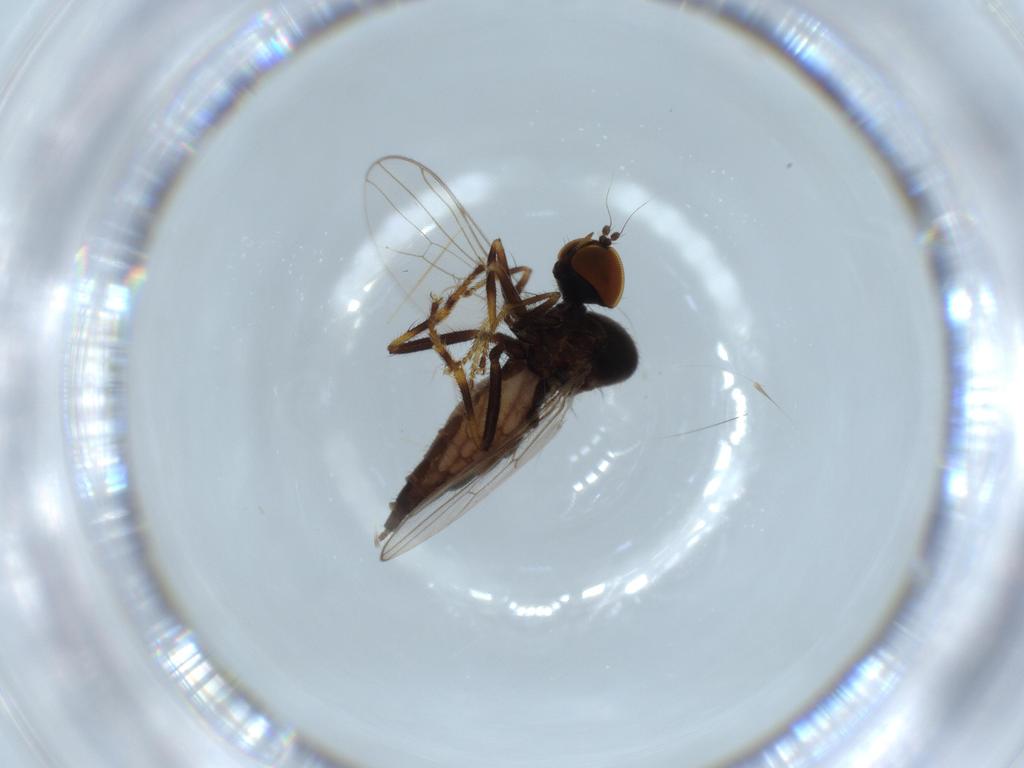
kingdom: Animalia
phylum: Arthropoda
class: Insecta
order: Diptera
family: Hybotidae
